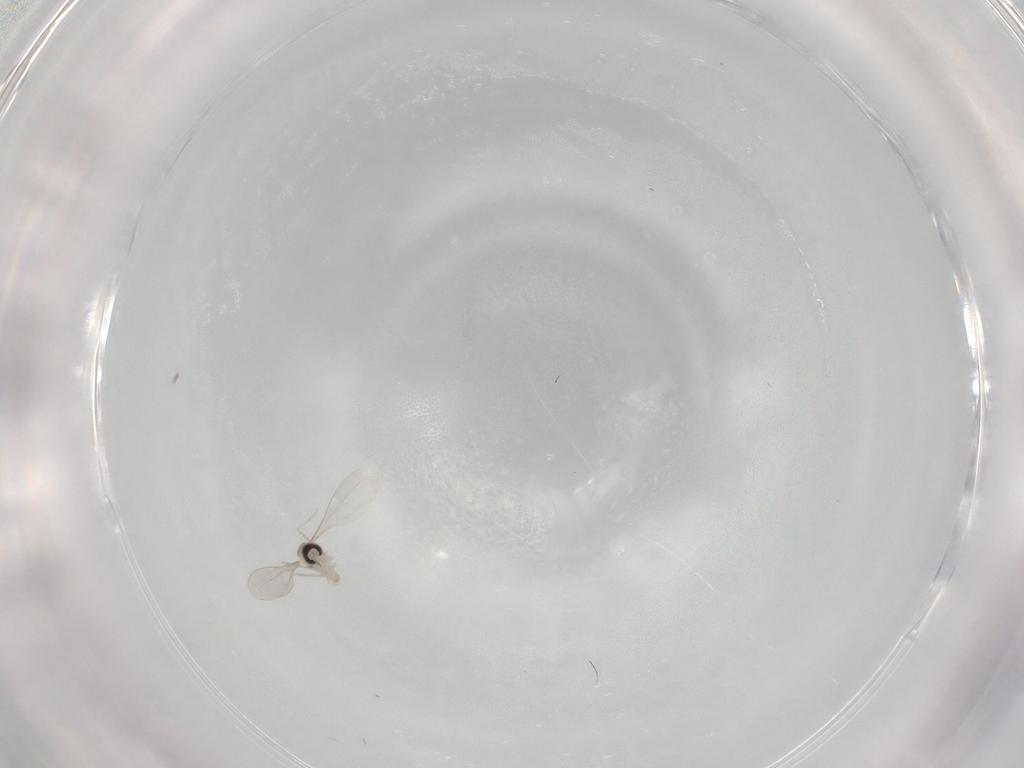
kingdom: Animalia
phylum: Arthropoda
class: Insecta
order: Diptera
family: Cecidomyiidae
